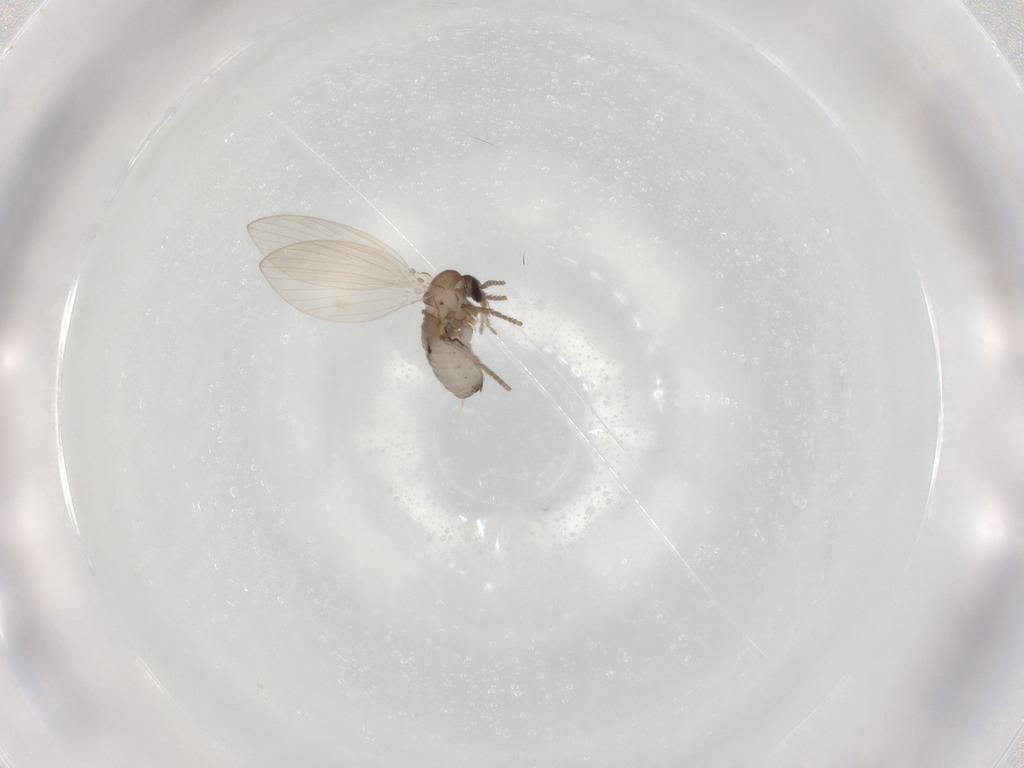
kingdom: Animalia
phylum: Arthropoda
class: Insecta
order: Diptera
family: Psychodidae
